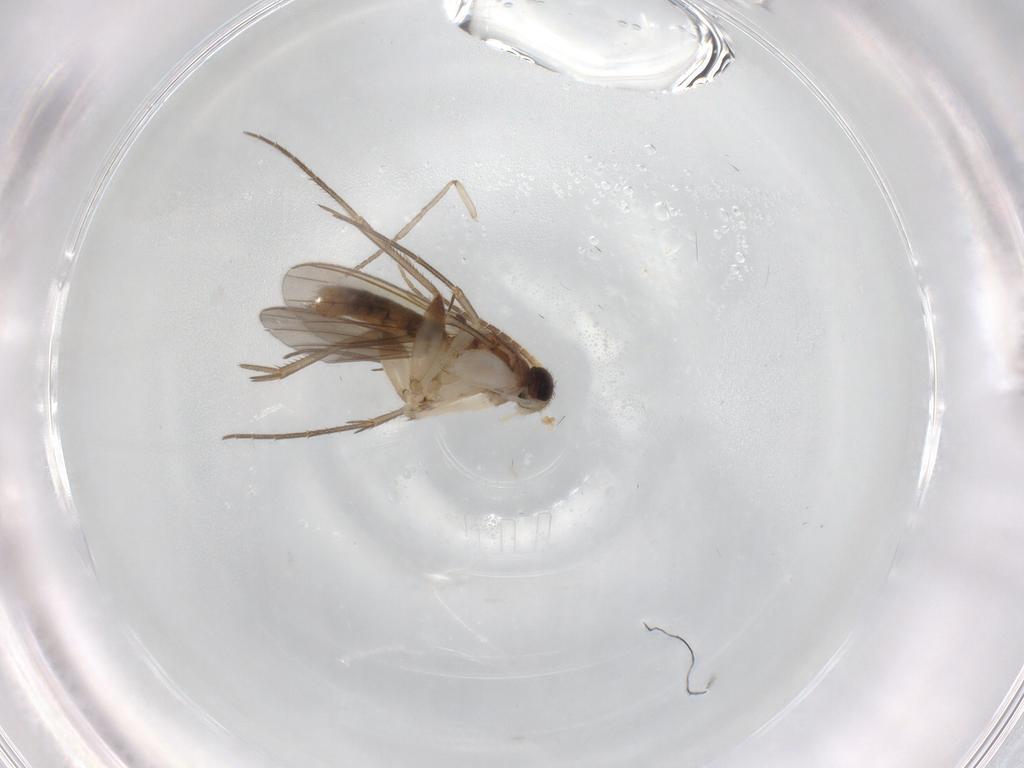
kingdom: Animalia
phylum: Arthropoda
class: Insecta
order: Diptera
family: Mycetophilidae
